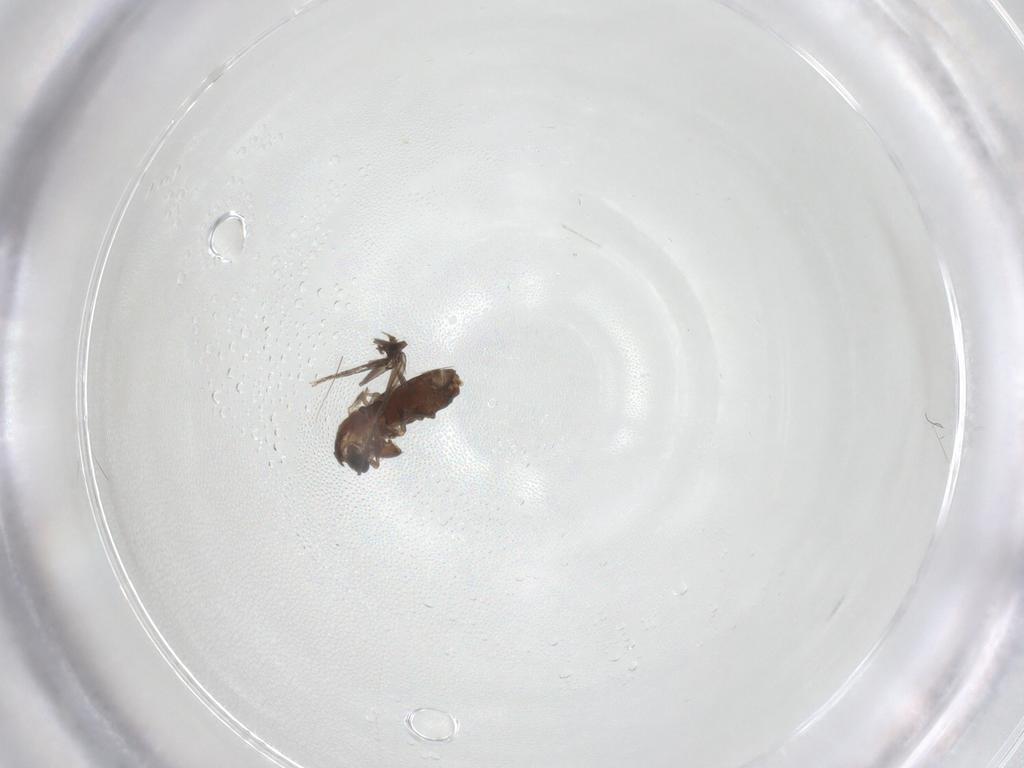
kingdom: Animalia
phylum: Arthropoda
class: Insecta
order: Diptera
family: Chironomidae
